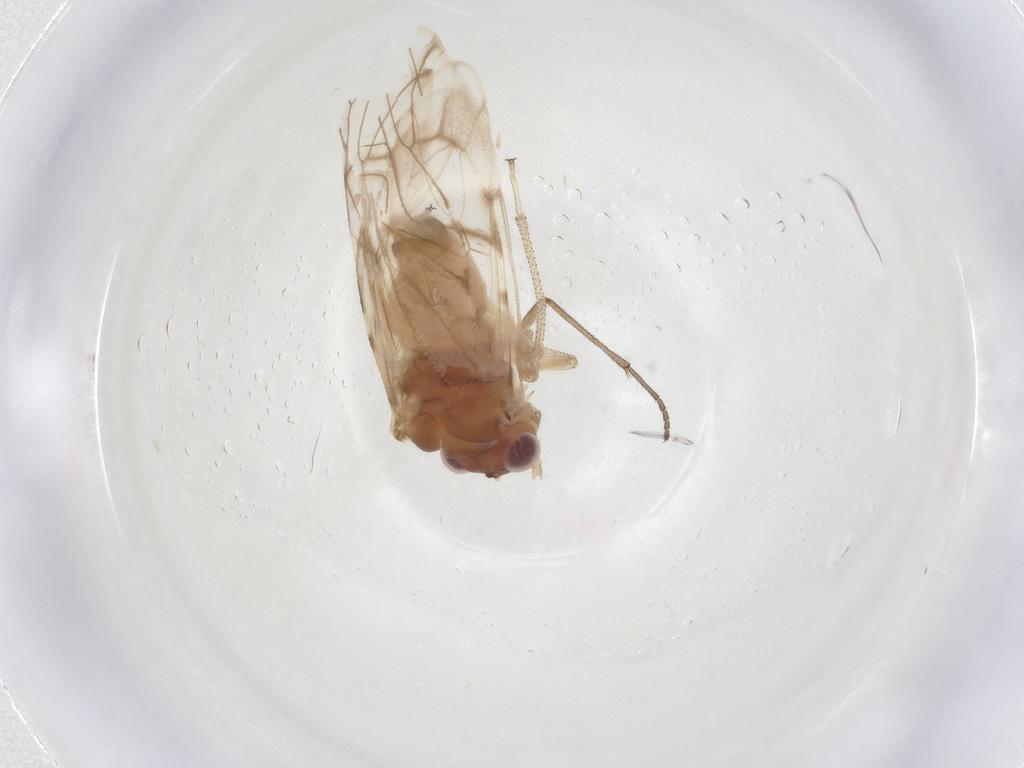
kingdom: Animalia
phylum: Arthropoda
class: Insecta
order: Psocodea
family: Amphipsocidae
